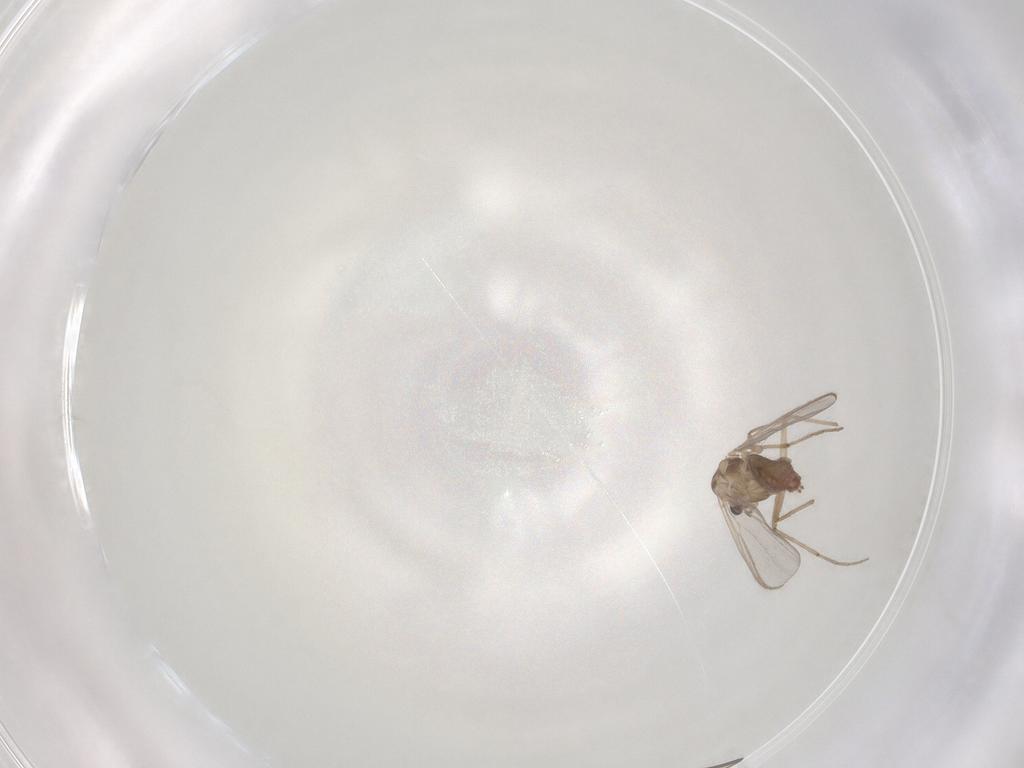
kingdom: Animalia
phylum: Arthropoda
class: Insecta
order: Diptera
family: Chironomidae
